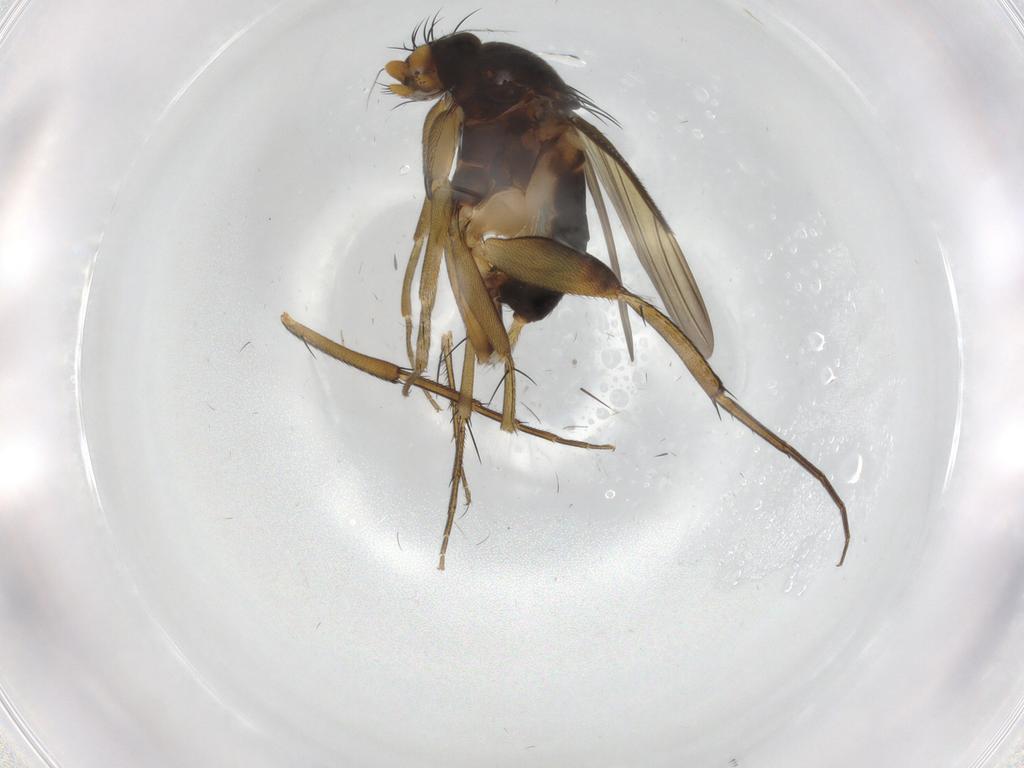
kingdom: Animalia
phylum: Arthropoda
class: Insecta
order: Diptera
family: Phoridae
